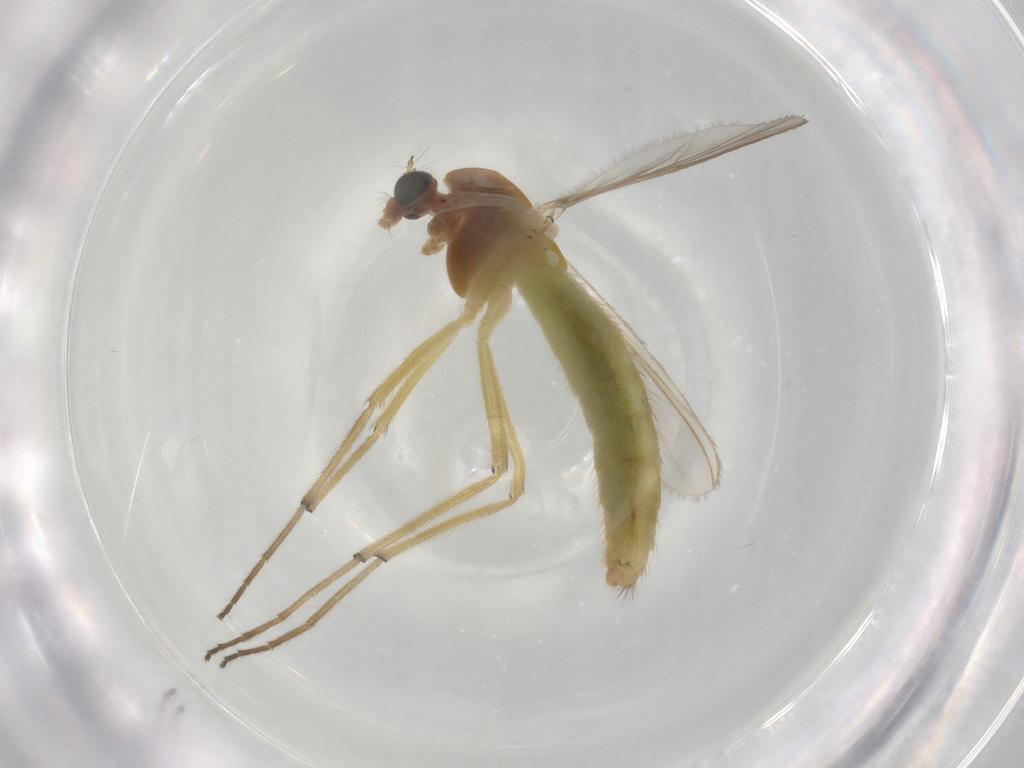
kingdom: Animalia
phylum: Arthropoda
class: Insecta
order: Diptera
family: Chironomidae
